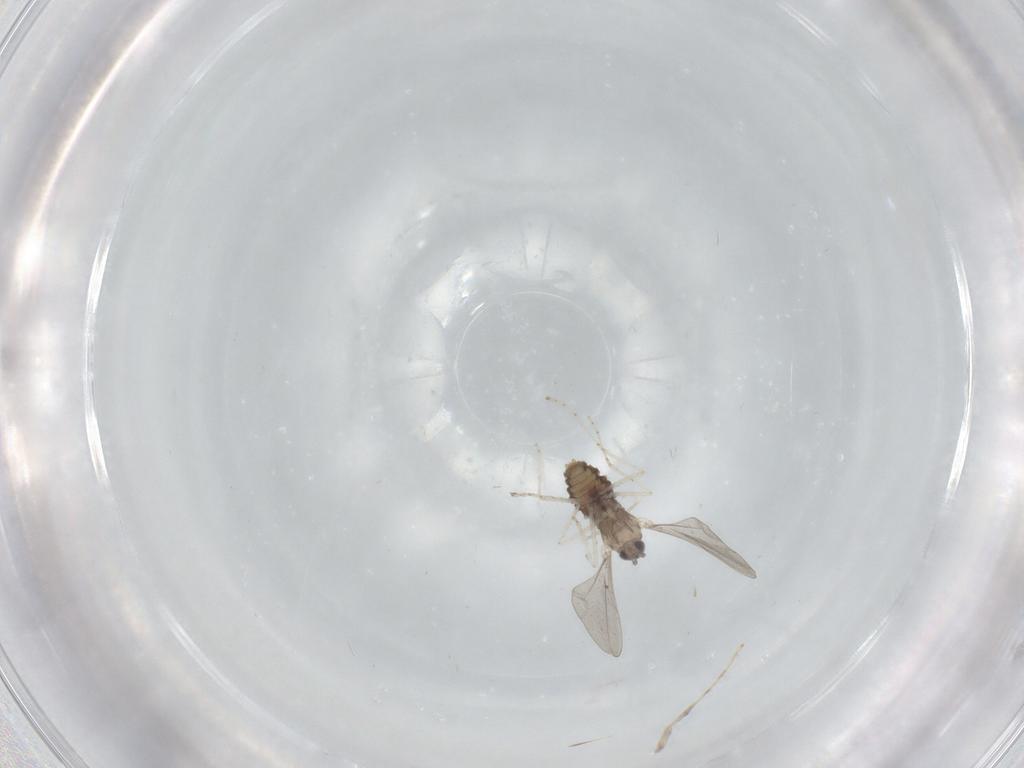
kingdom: Animalia
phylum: Arthropoda
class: Insecta
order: Diptera
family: Cecidomyiidae
